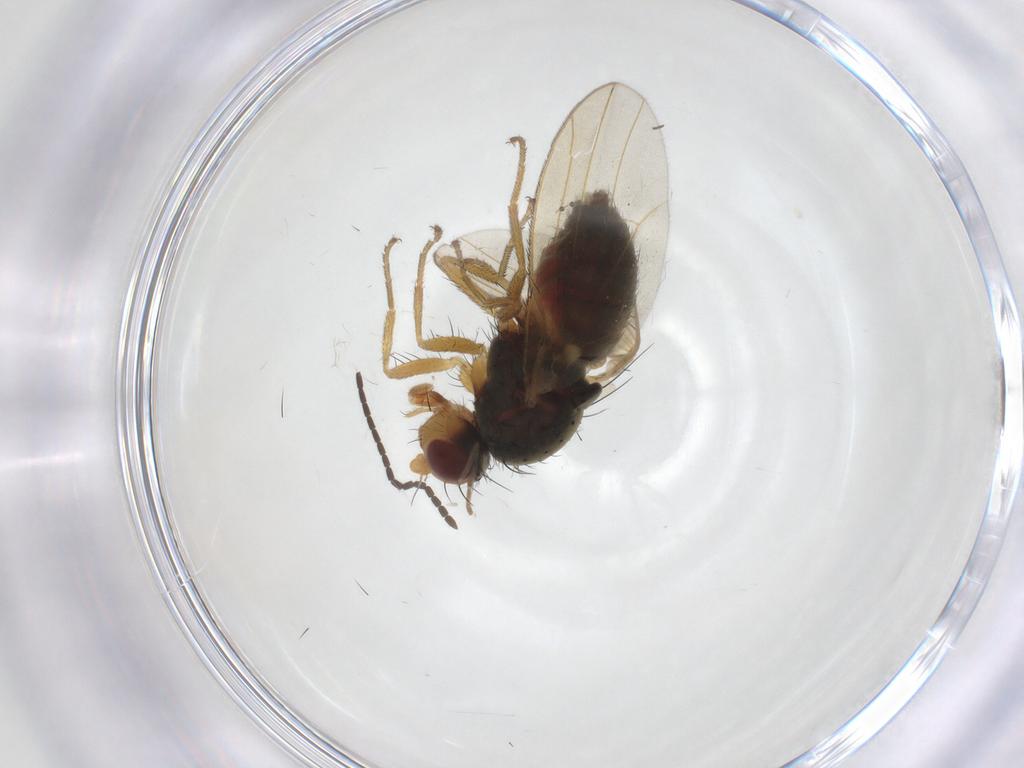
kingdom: Animalia
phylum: Arthropoda
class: Insecta
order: Diptera
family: Heleomyzidae
